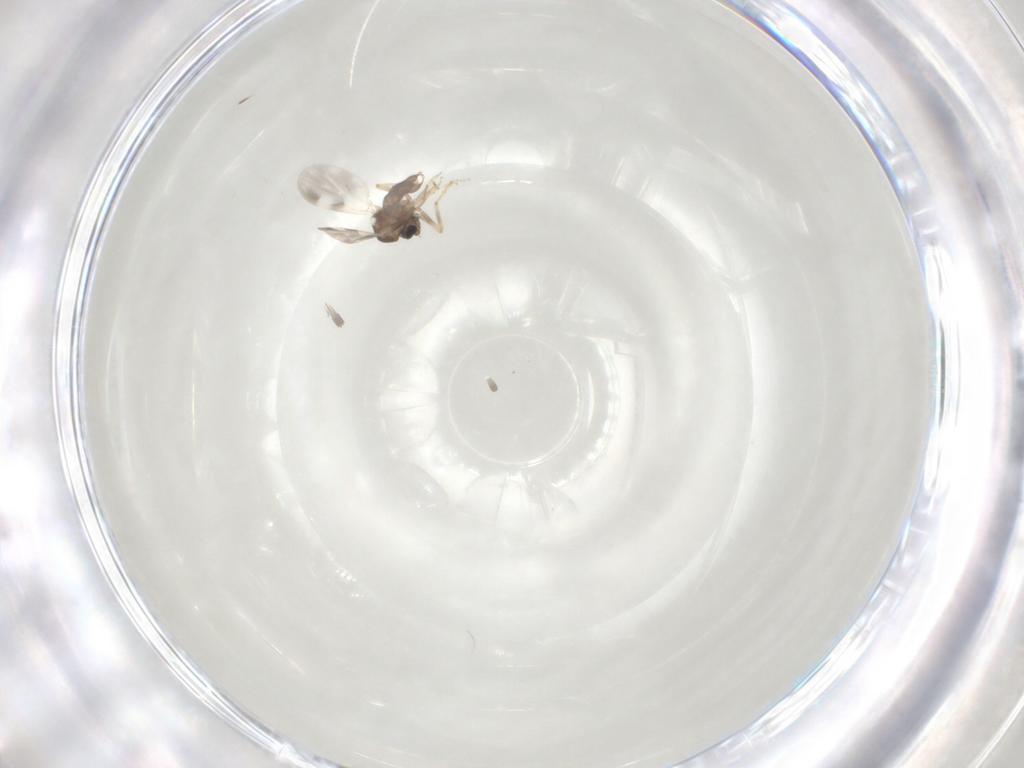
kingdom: Animalia
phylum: Arthropoda
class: Insecta
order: Diptera
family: Ceratopogonidae
